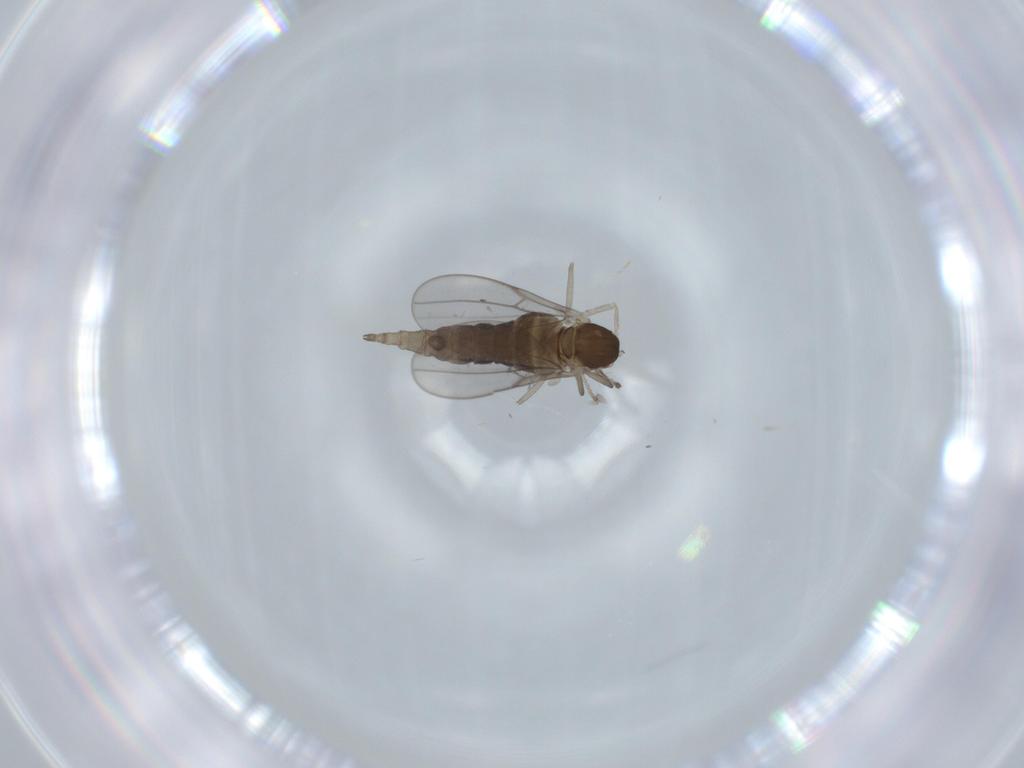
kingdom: Animalia
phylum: Arthropoda
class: Insecta
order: Diptera
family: Cecidomyiidae
